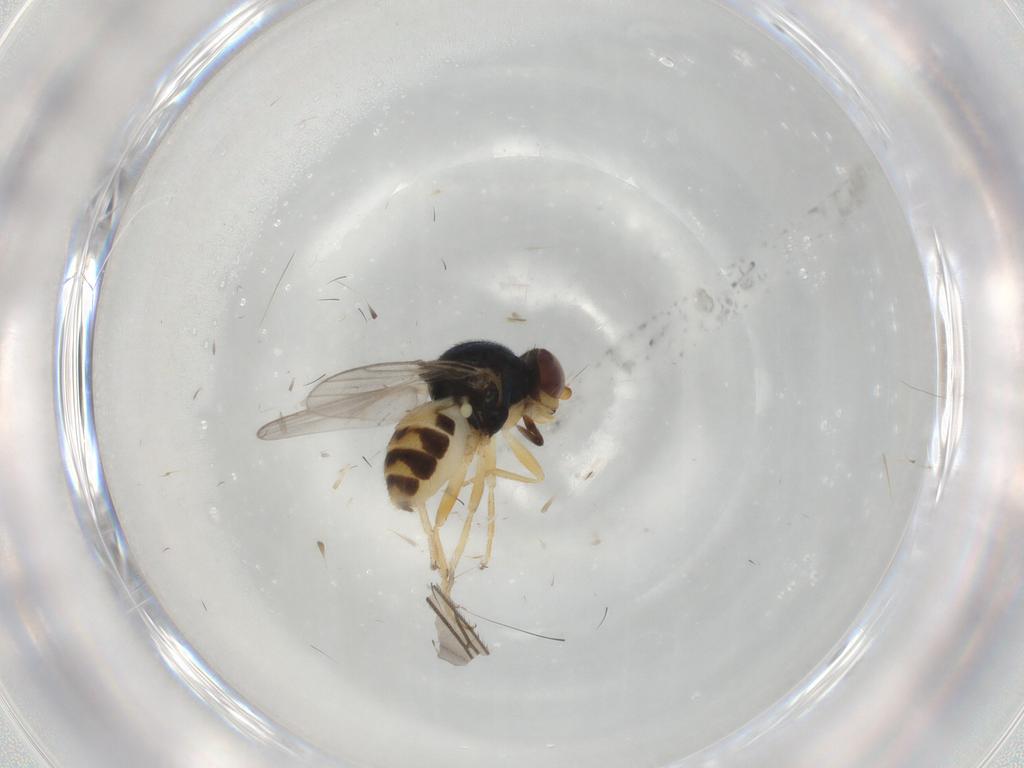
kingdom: Animalia
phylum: Arthropoda
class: Insecta
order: Diptera
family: Chloropidae
